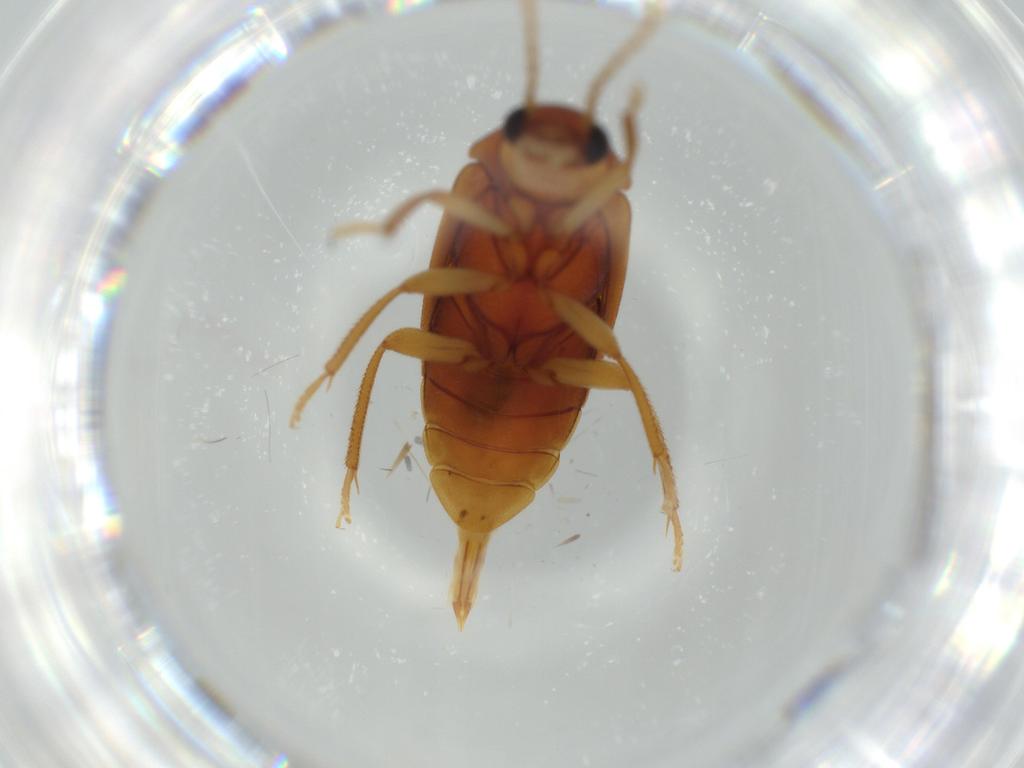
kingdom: Animalia
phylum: Arthropoda
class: Insecta
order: Coleoptera
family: Ptilodactylidae
